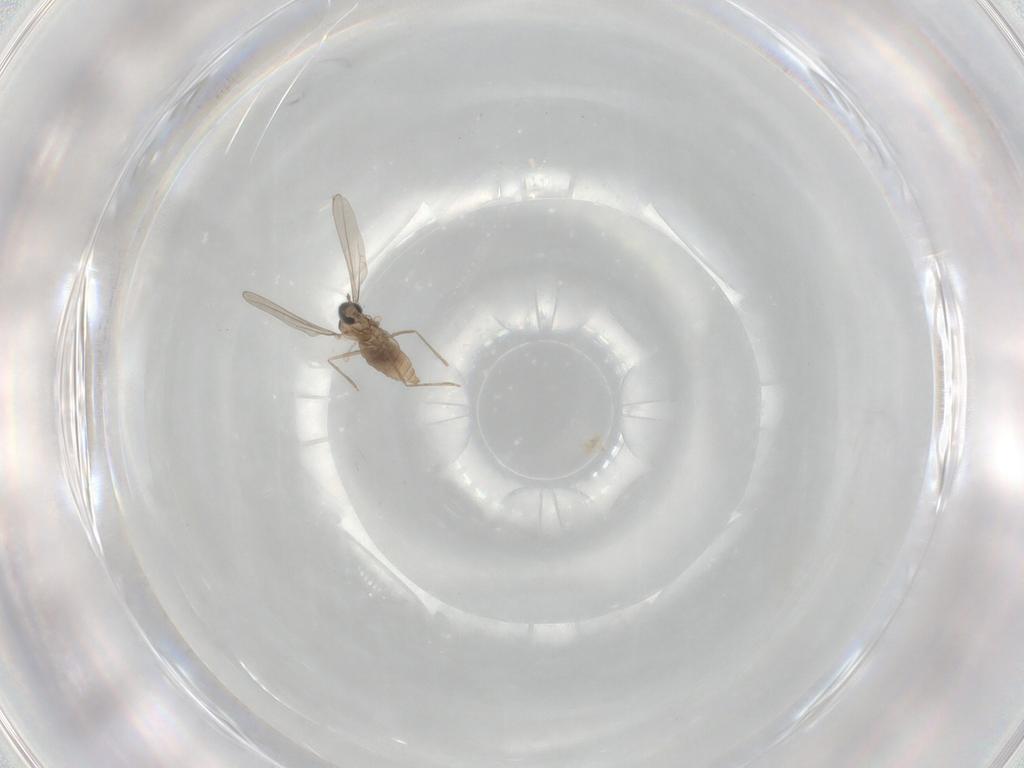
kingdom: Animalia
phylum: Arthropoda
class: Insecta
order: Diptera
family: Cecidomyiidae
